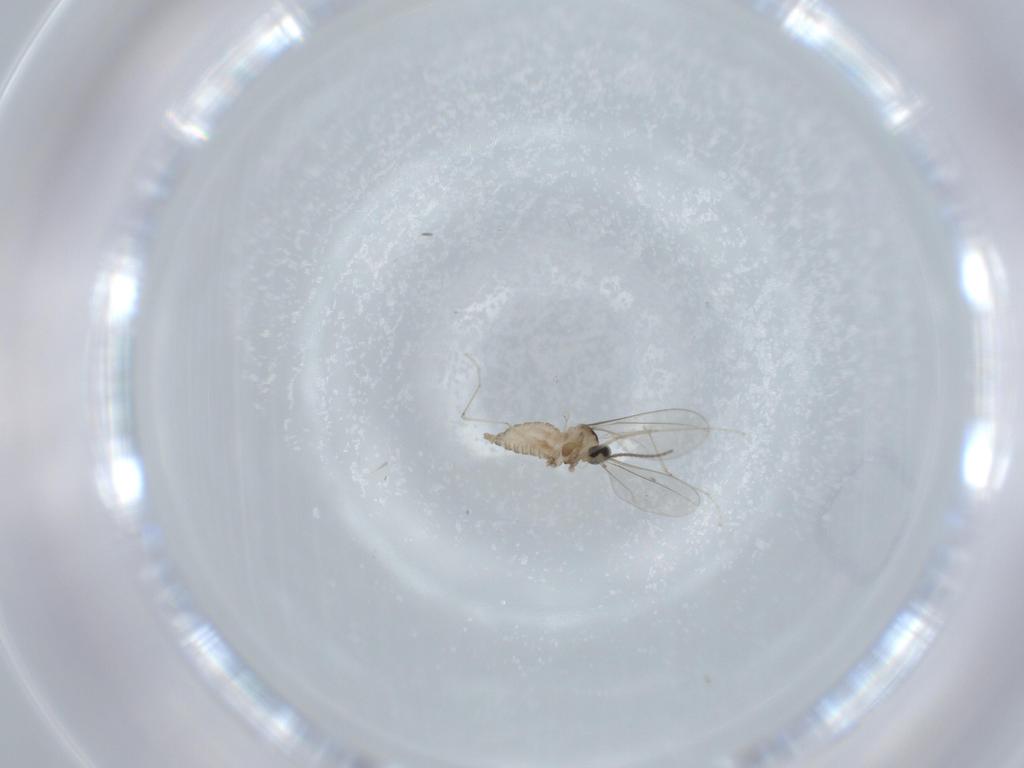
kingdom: Animalia
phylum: Arthropoda
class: Insecta
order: Diptera
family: Cecidomyiidae
